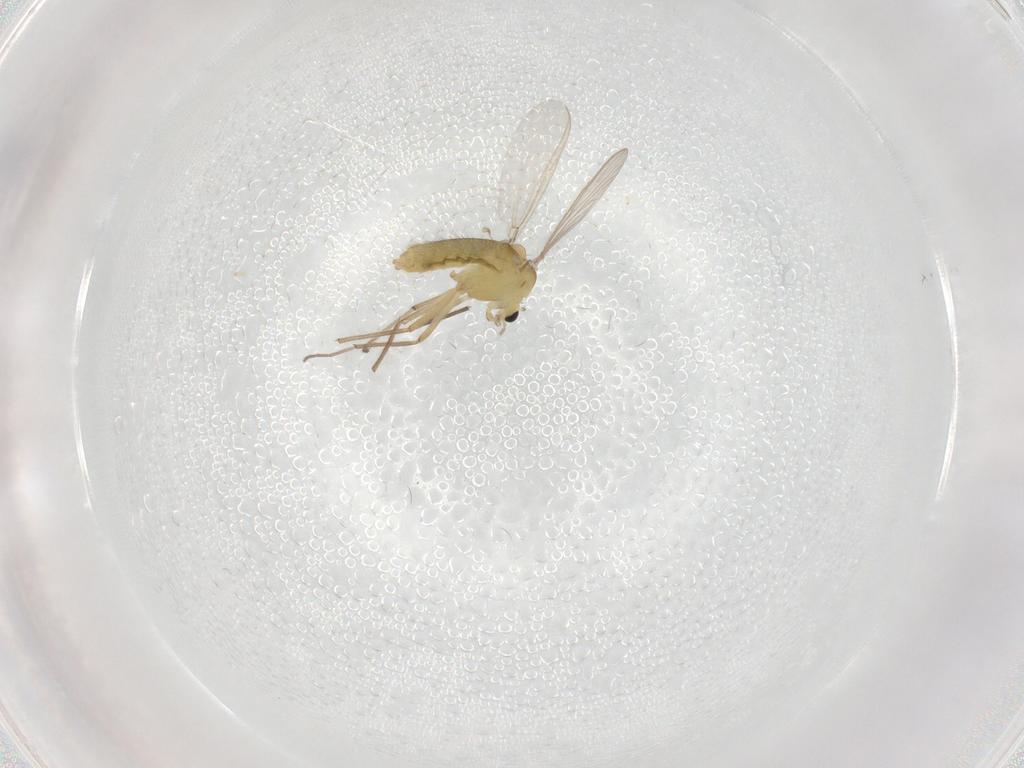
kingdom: Animalia
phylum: Arthropoda
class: Insecta
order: Diptera
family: Chironomidae
